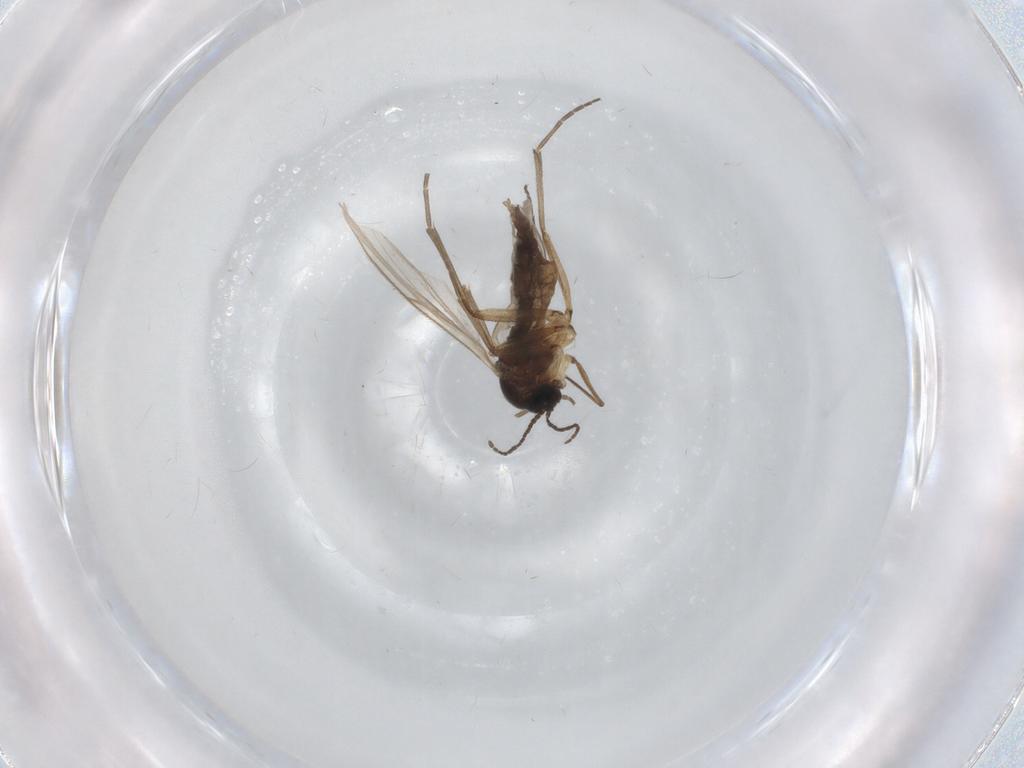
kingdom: Animalia
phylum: Arthropoda
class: Insecta
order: Diptera
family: Sciaridae
